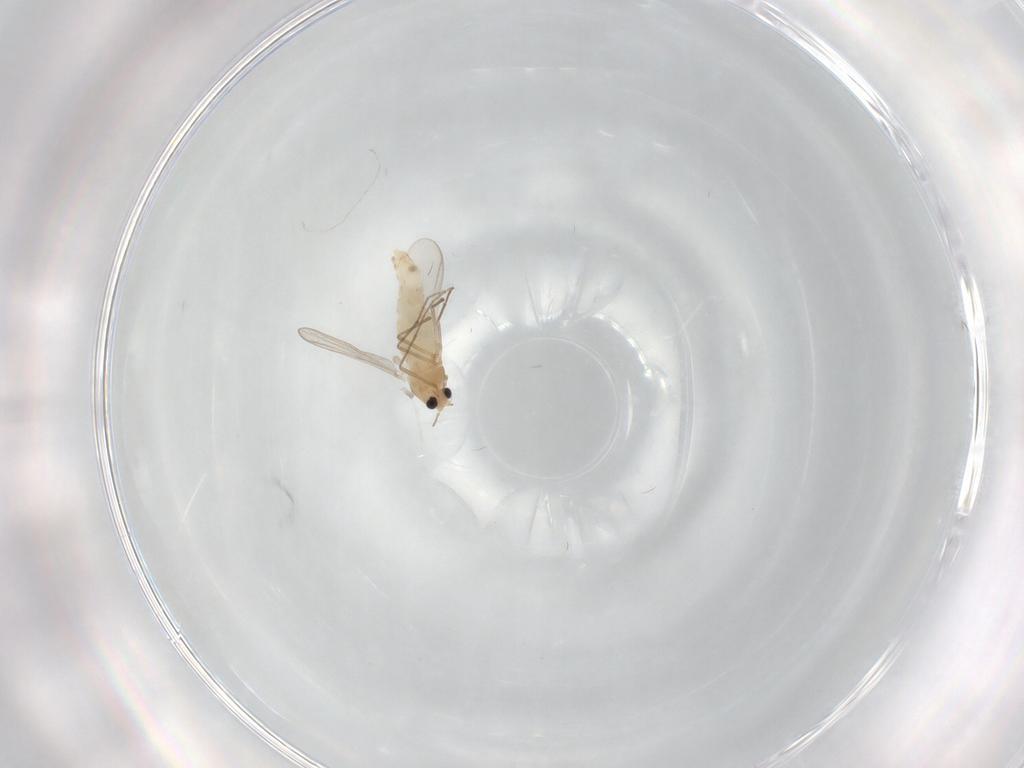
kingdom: Animalia
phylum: Arthropoda
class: Insecta
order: Diptera
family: Chironomidae
